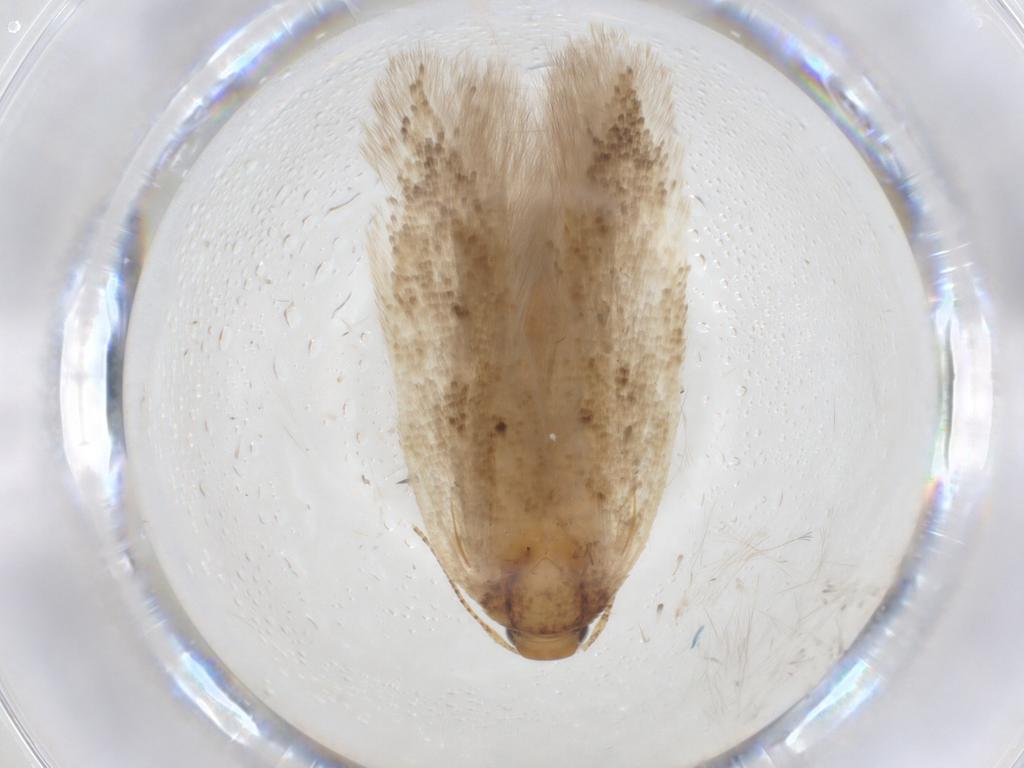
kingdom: Animalia
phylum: Arthropoda
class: Insecta
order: Lepidoptera
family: Gelechiidae
